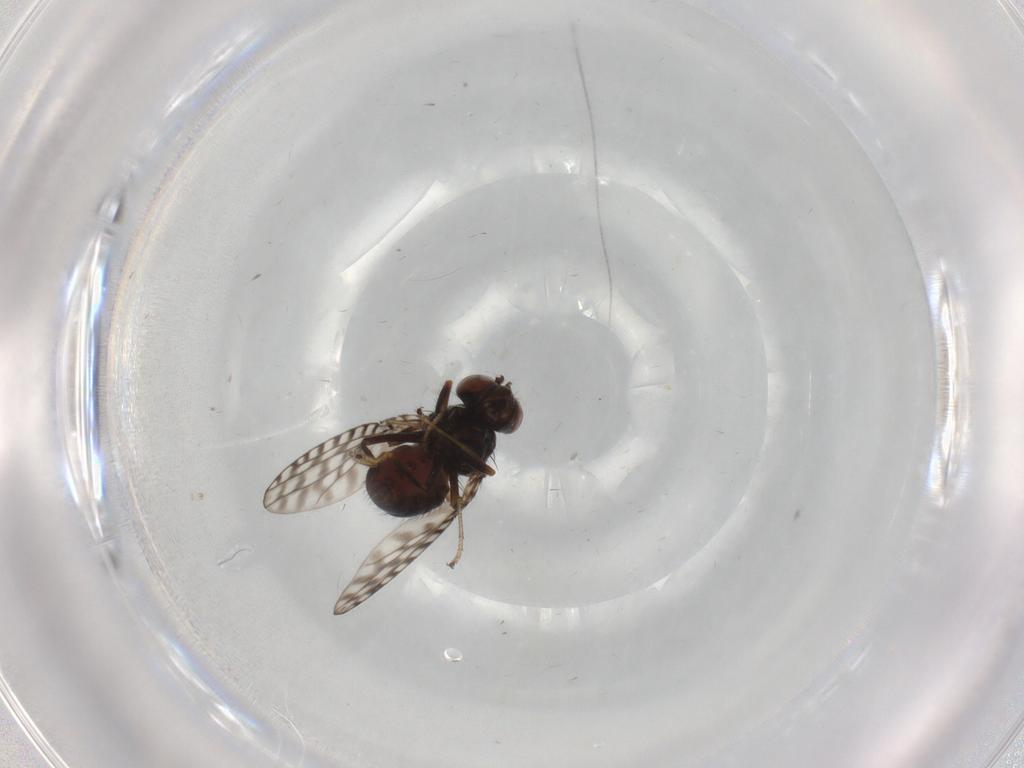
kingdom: Animalia
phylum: Arthropoda
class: Insecta
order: Diptera
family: Ephydridae
